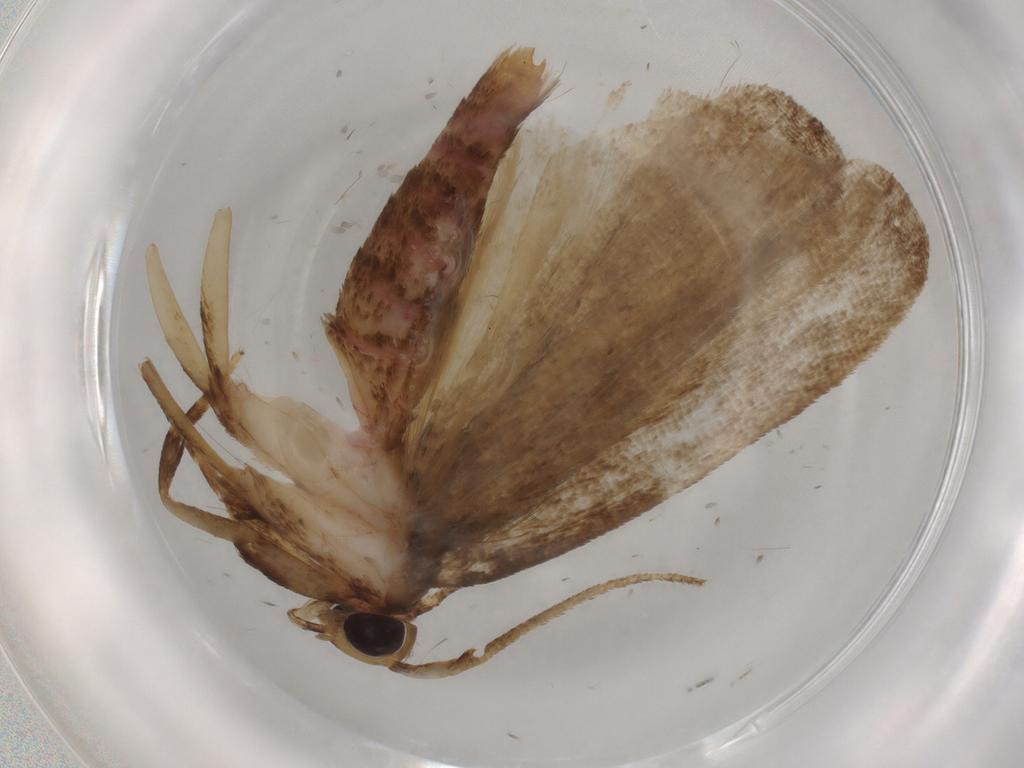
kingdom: Animalia
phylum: Arthropoda
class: Insecta
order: Lepidoptera
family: Autostichidae
